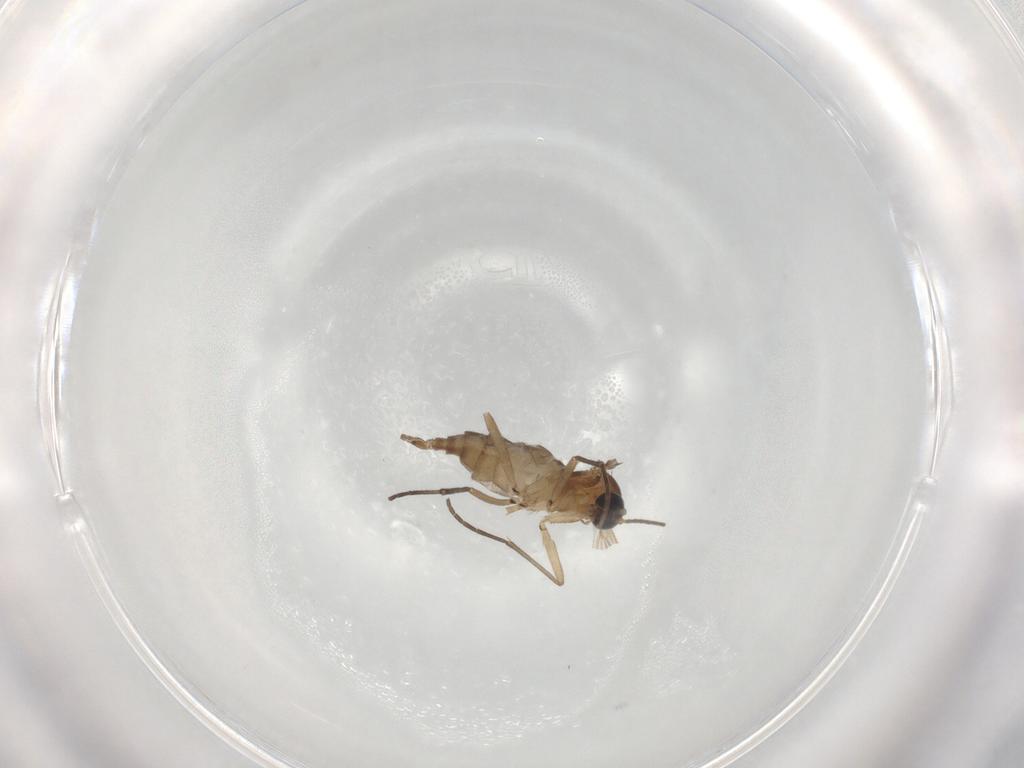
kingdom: Animalia
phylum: Arthropoda
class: Insecta
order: Diptera
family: Sciaridae
